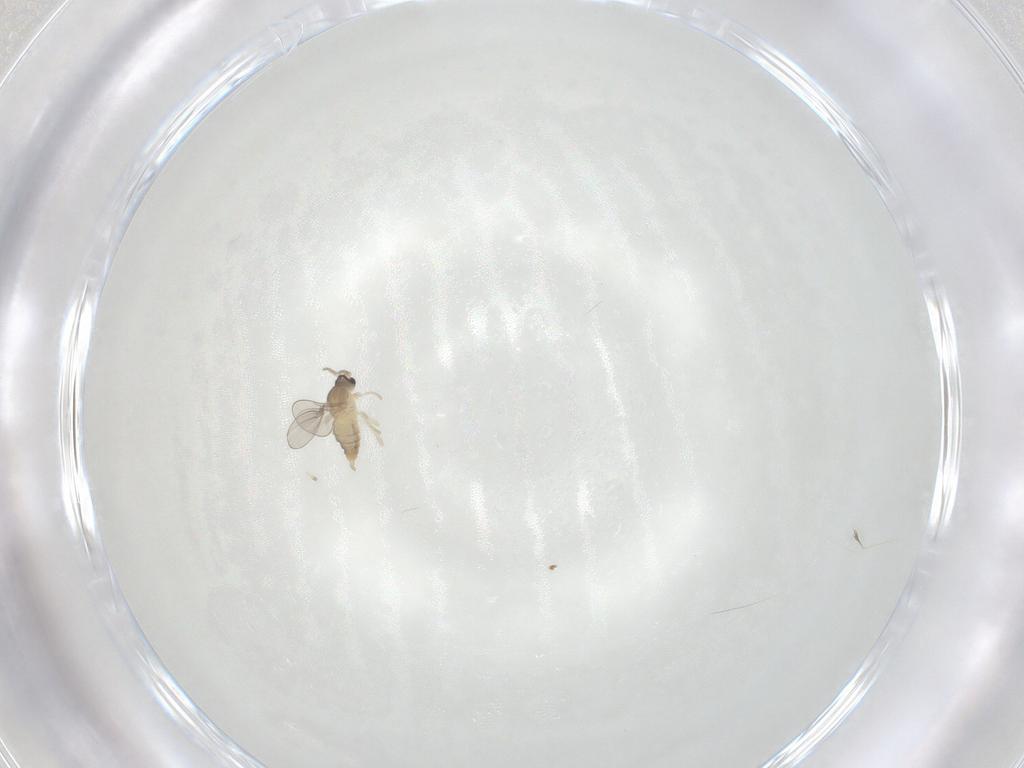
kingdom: Animalia
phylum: Arthropoda
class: Insecta
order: Diptera
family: Cecidomyiidae
